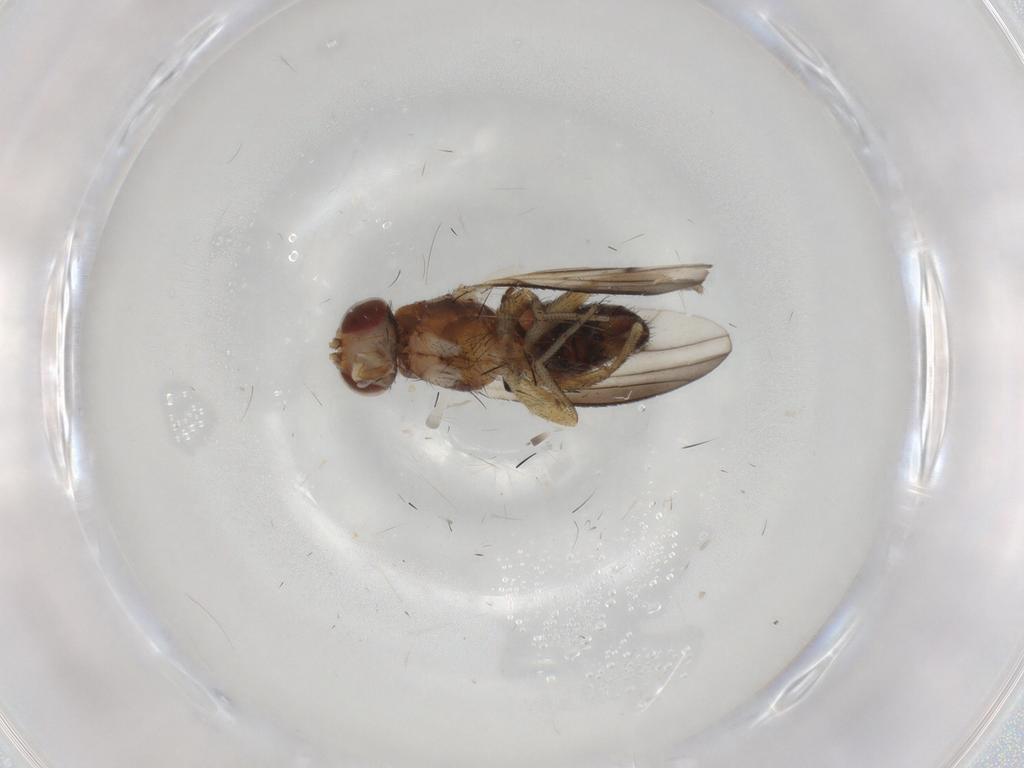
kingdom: Animalia
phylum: Arthropoda
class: Insecta
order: Diptera
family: Heleomyzidae
